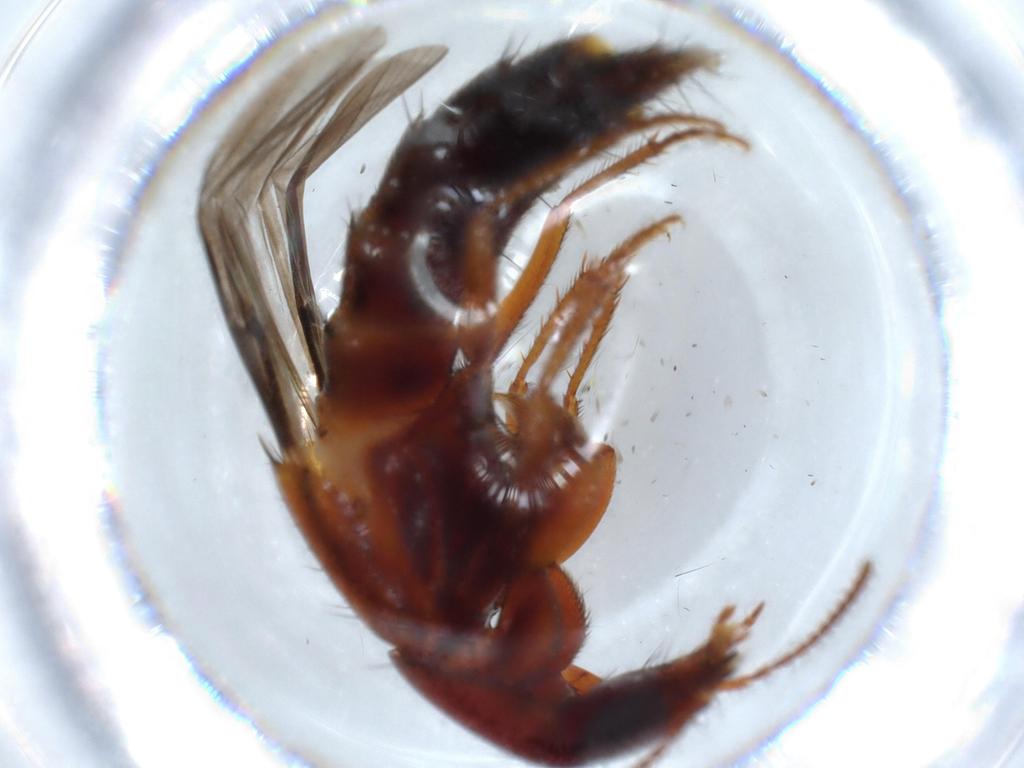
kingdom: Animalia
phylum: Arthropoda
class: Insecta
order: Coleoptera
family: Staphylinidae
